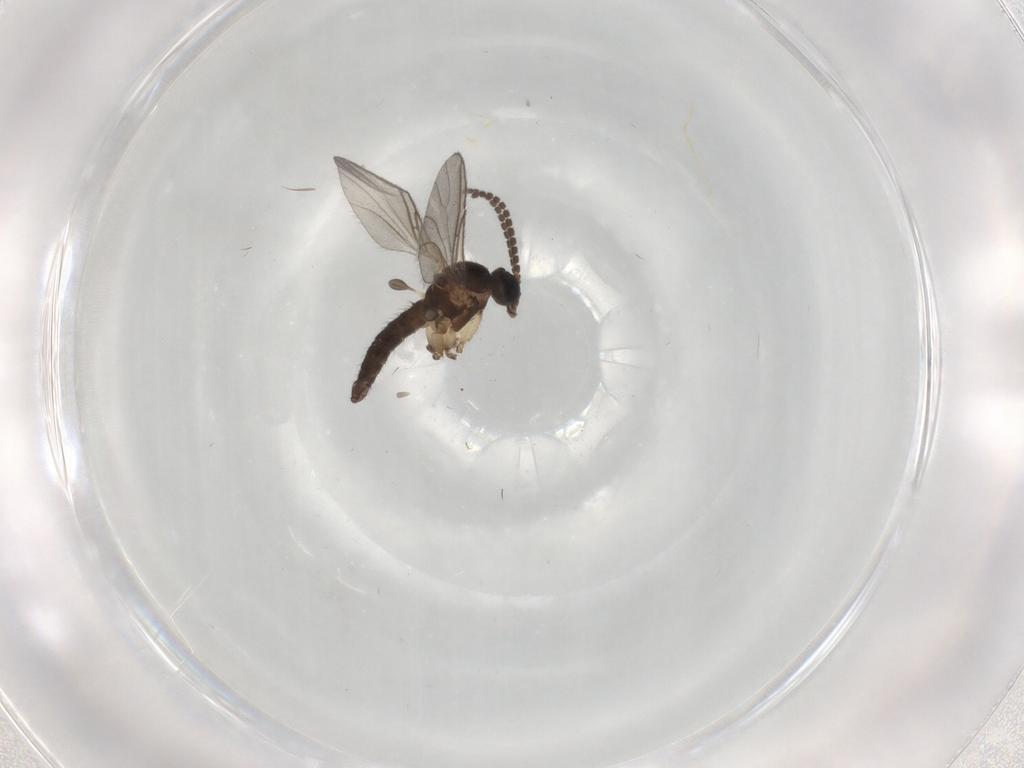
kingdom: Animalia
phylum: Arthropoda
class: Insecta
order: Diptera
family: Sciaridae
